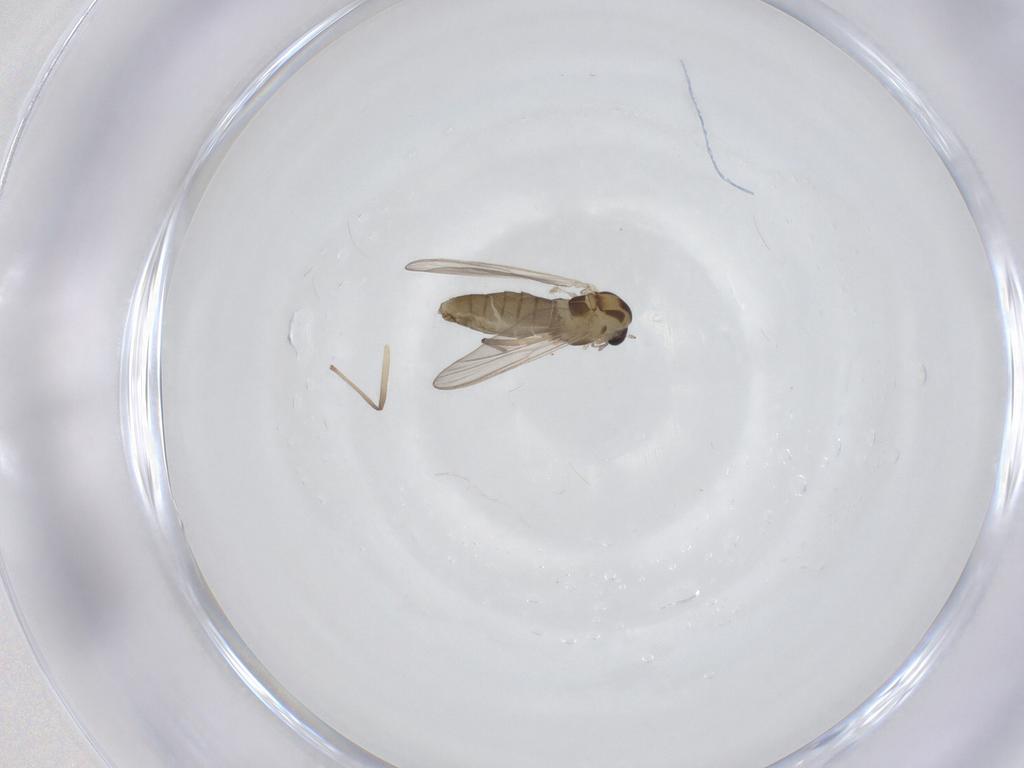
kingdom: Animalia
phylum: Arthropoda
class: Insecta
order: Diptera
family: Chironomidae
